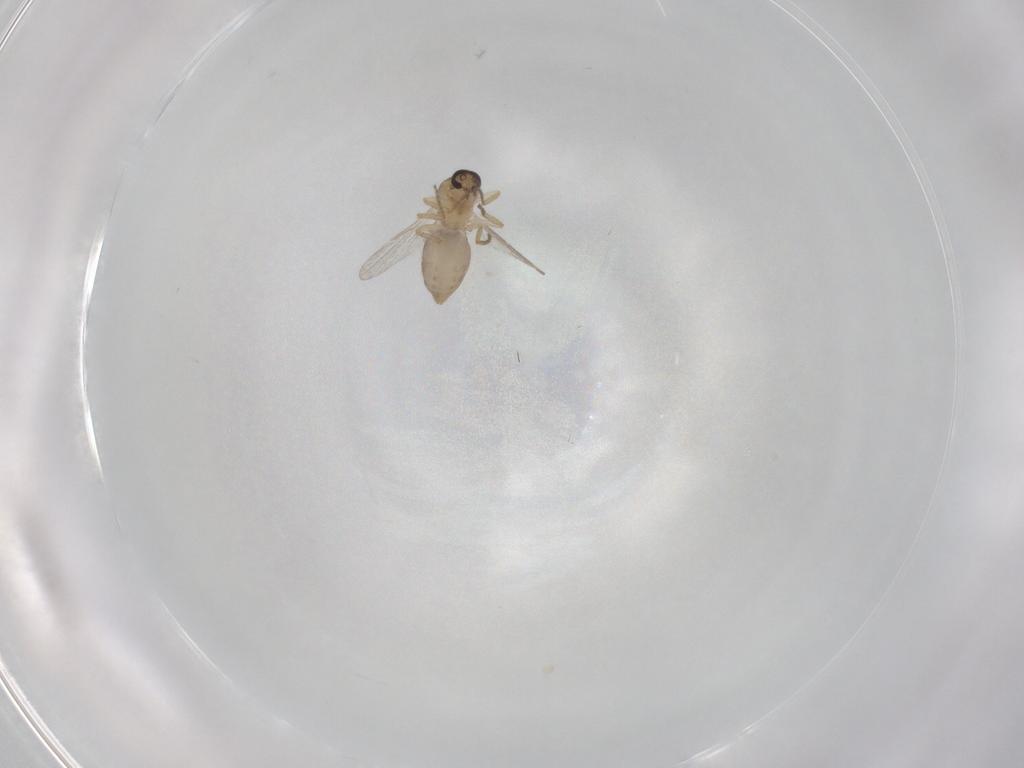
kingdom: Animalia
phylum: Arthropoda
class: Insecta
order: Diptera
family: Ceratopogonidae
